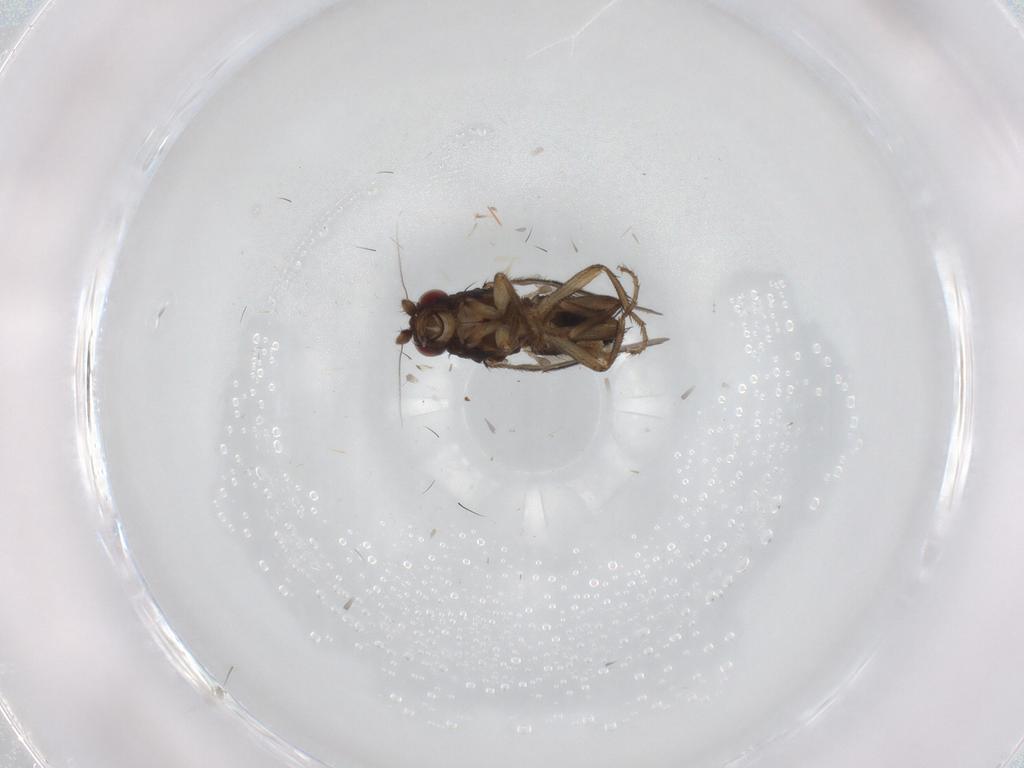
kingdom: Animalia
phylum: Arthropoda
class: Insecta
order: Diptera
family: Sphaeroceridae
